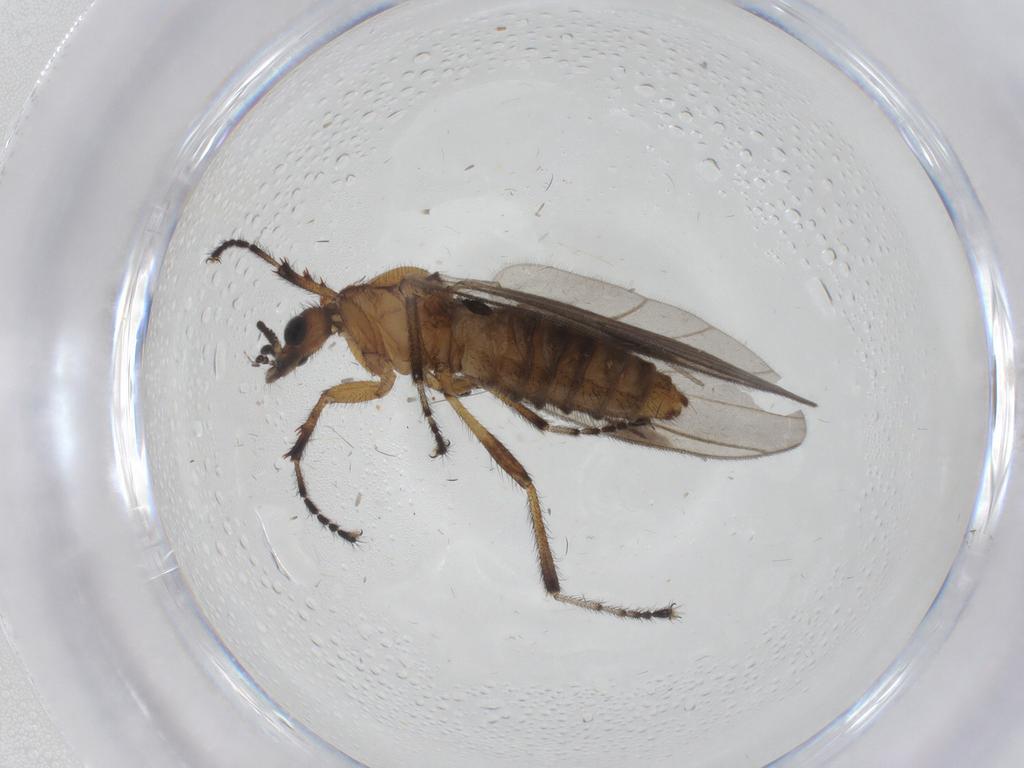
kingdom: Animalia
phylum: Arthropoda
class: Insecta
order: Diptera
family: Bibionidae
